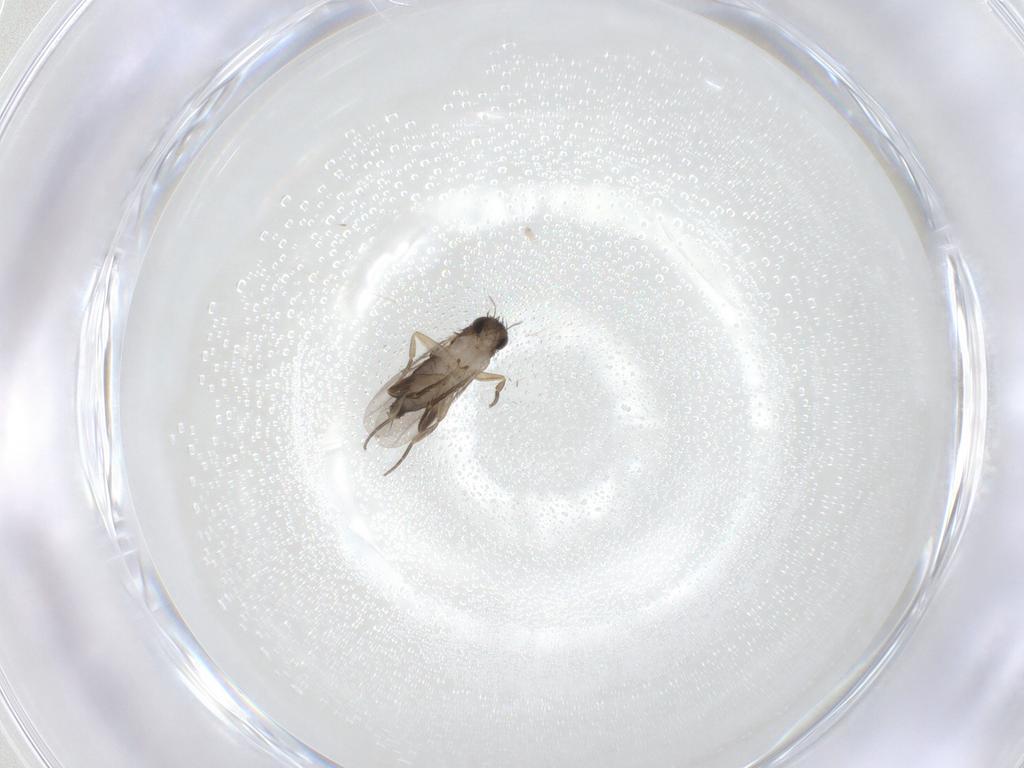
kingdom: Animalia
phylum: Arthropoda
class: Insecta
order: Diptera
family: Phoridae
